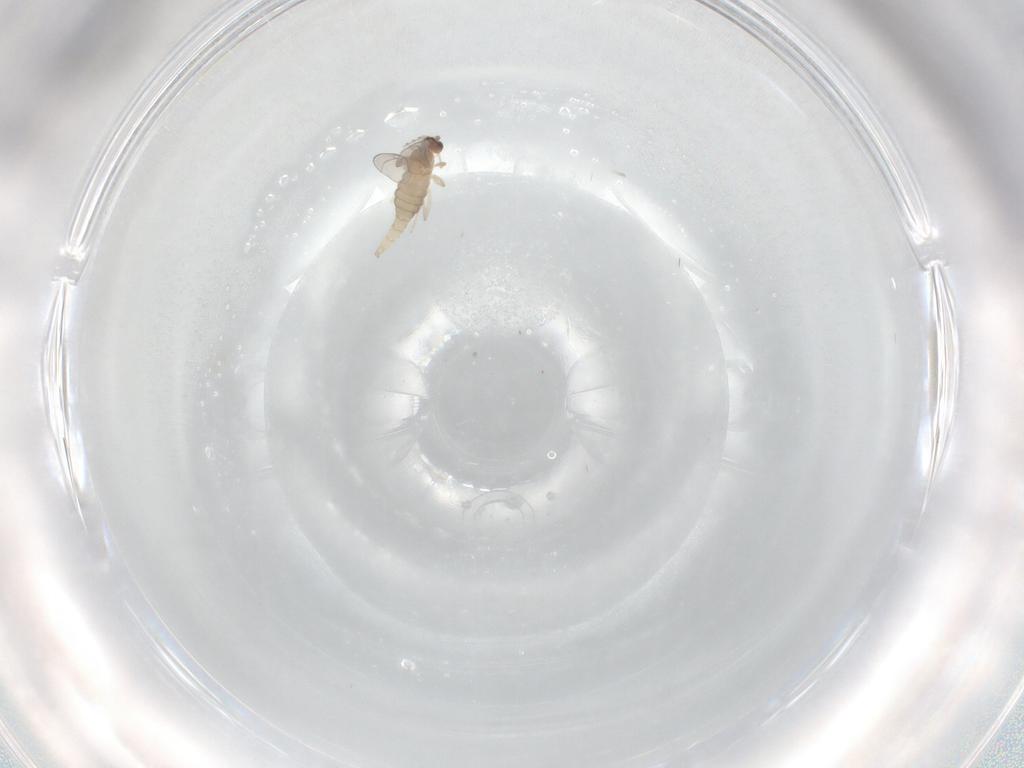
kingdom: Animalia
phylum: Arthropoda
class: Insecta
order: Diptera
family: Cecidomyiidae
